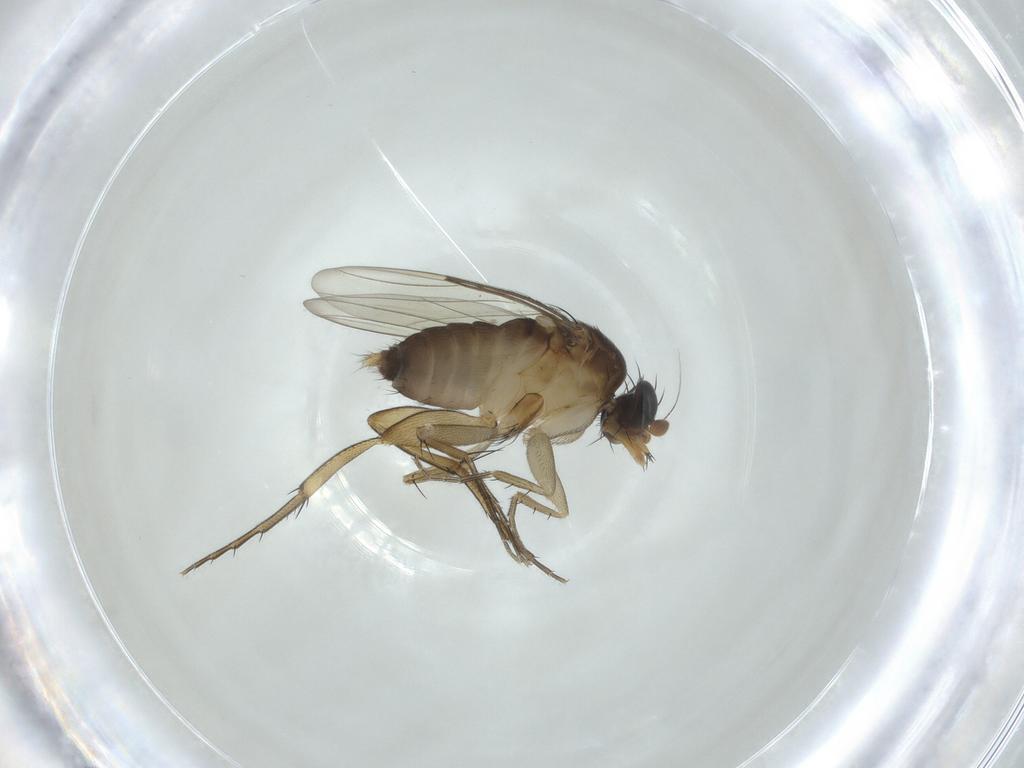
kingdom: Animalia
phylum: Arthropoda
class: Insecta
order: Diptera
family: Phoridae
